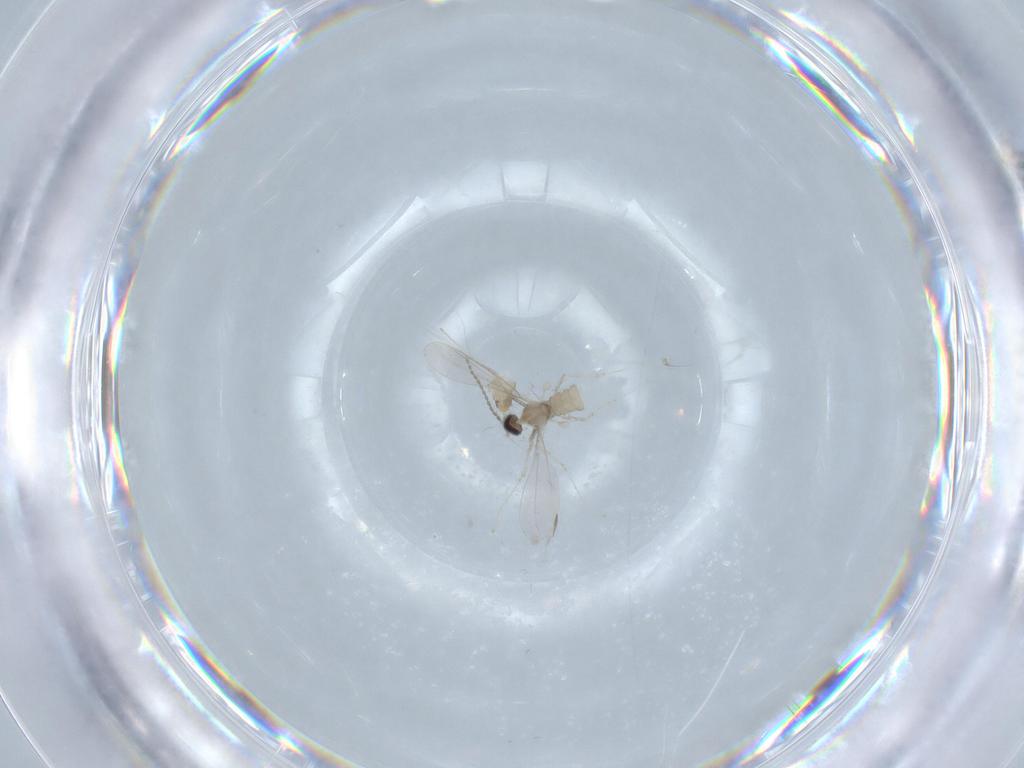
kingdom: Animalia
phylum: Arthropoda
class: Insecta
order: Diptera
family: Cecidomyiidae
